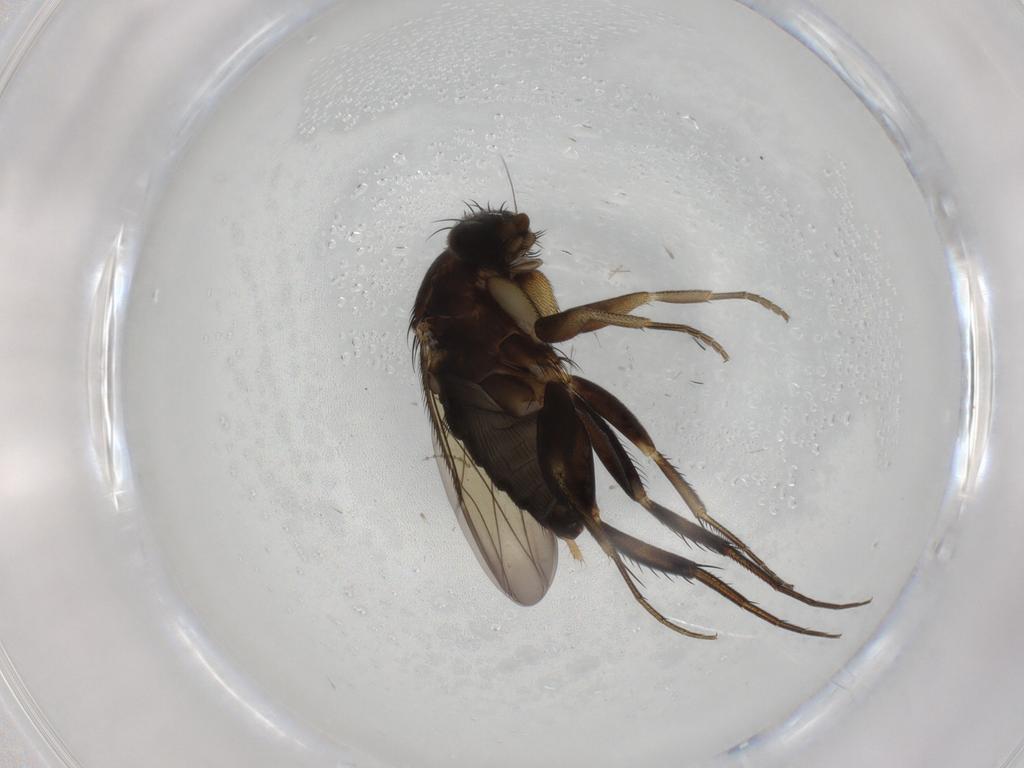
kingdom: Animalia
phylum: Arthropoda
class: Insecta
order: Diptera
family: Phoridae
